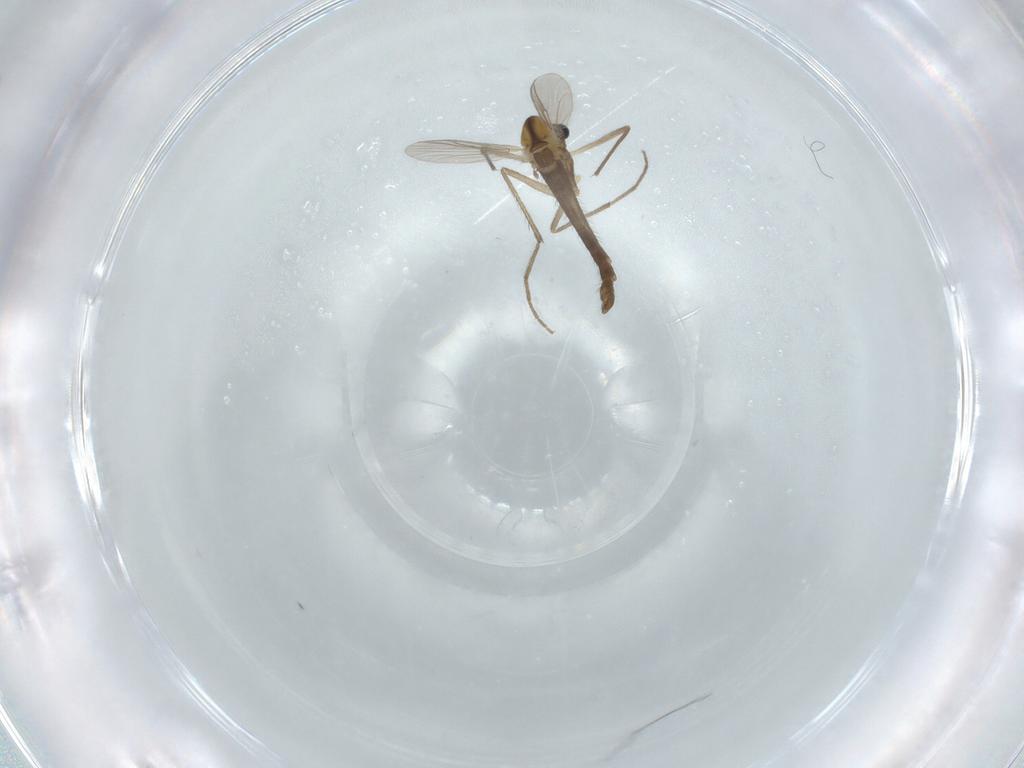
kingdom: Animalia
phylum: Arthropoda
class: Insecta
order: Diptera
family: Chironomidae
